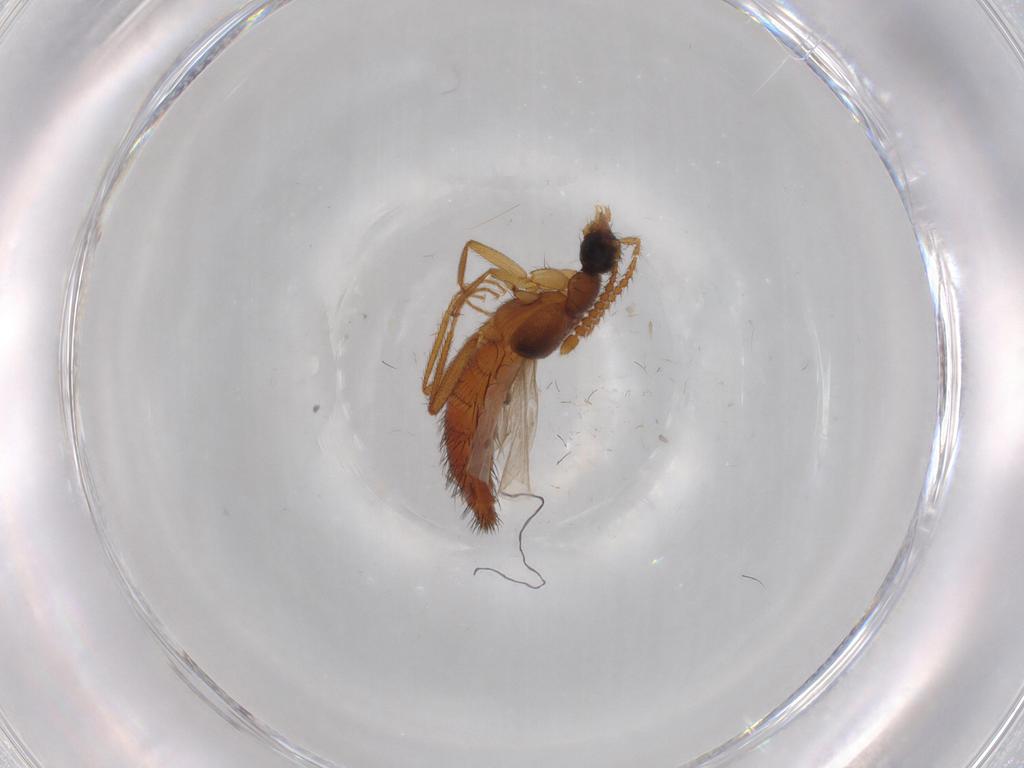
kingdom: Animalia
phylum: Arthropoda
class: Insecta
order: Coleoptera
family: Staphylinidae
